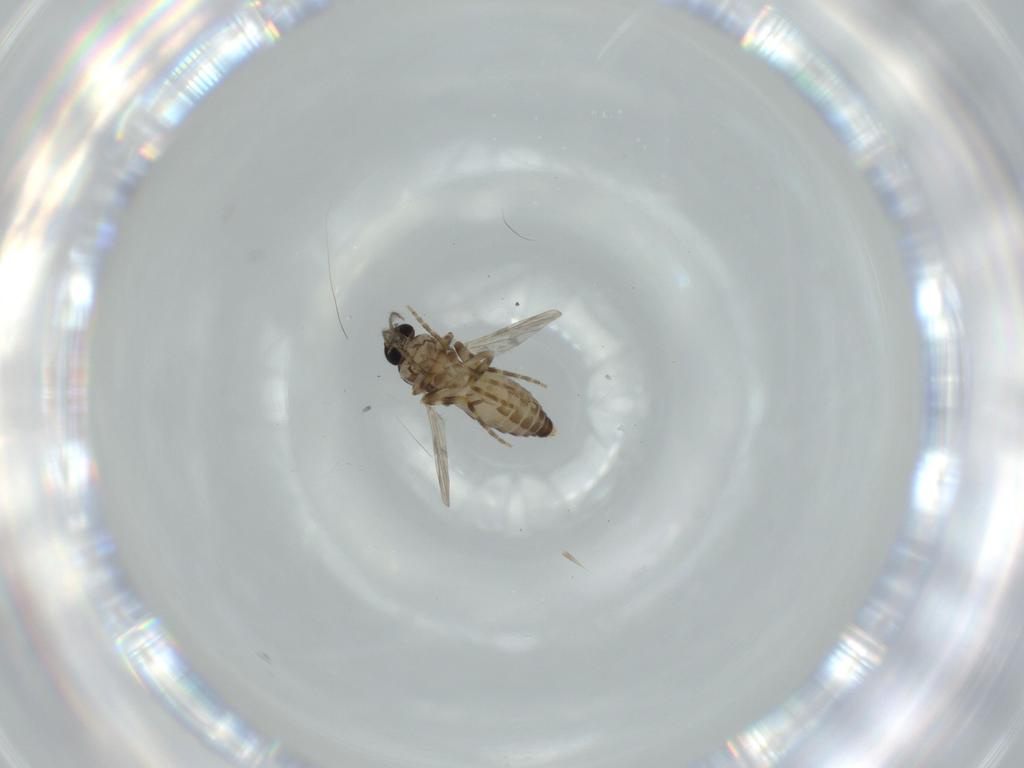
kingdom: Animalia
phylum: Arthropoda
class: Insecta
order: Diptera
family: Ceratopogonidae
